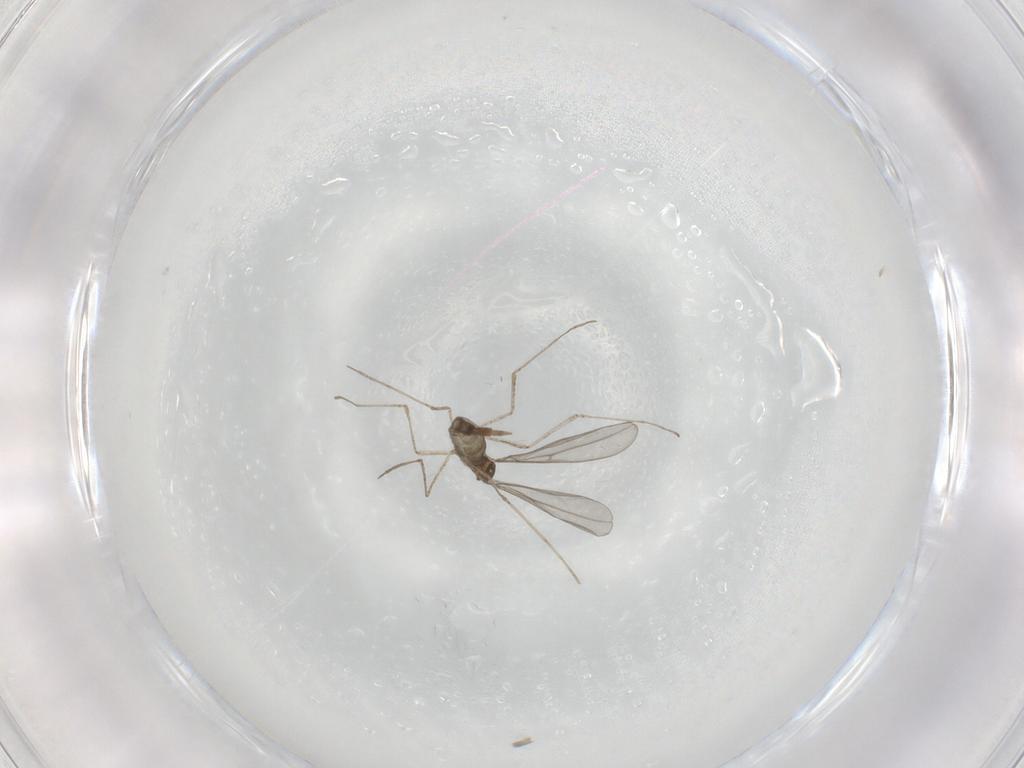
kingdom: Animalia
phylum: Arthropoda
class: Insecta
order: Diptera
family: Cecidomyiidae
